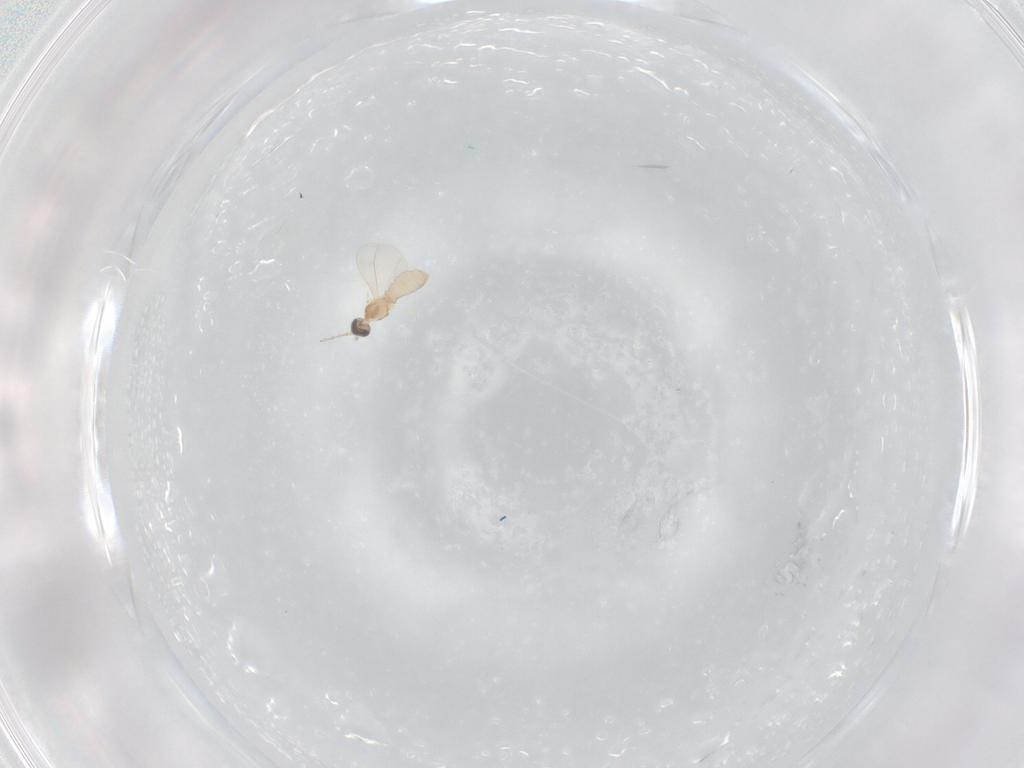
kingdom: Animalia
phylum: Arthropoda
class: Insecta
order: Diptera
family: Cecidomyiidae
